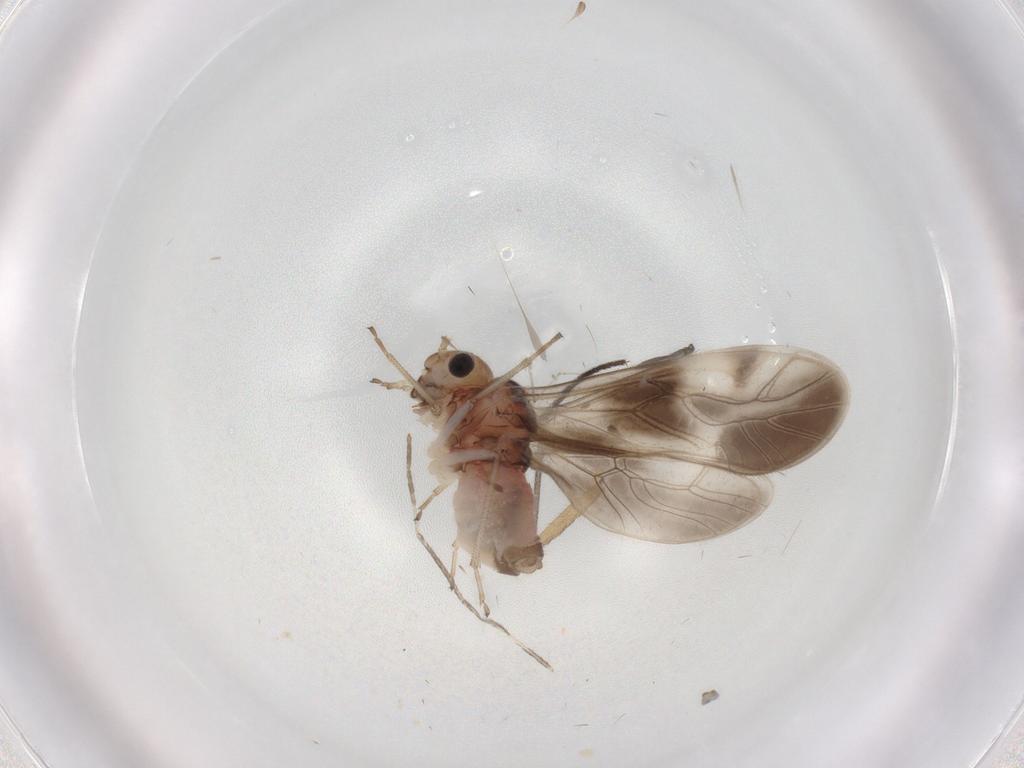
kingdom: Animalia
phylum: Arthropoda
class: Insecta
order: Psocodea
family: Caeciliusidae
